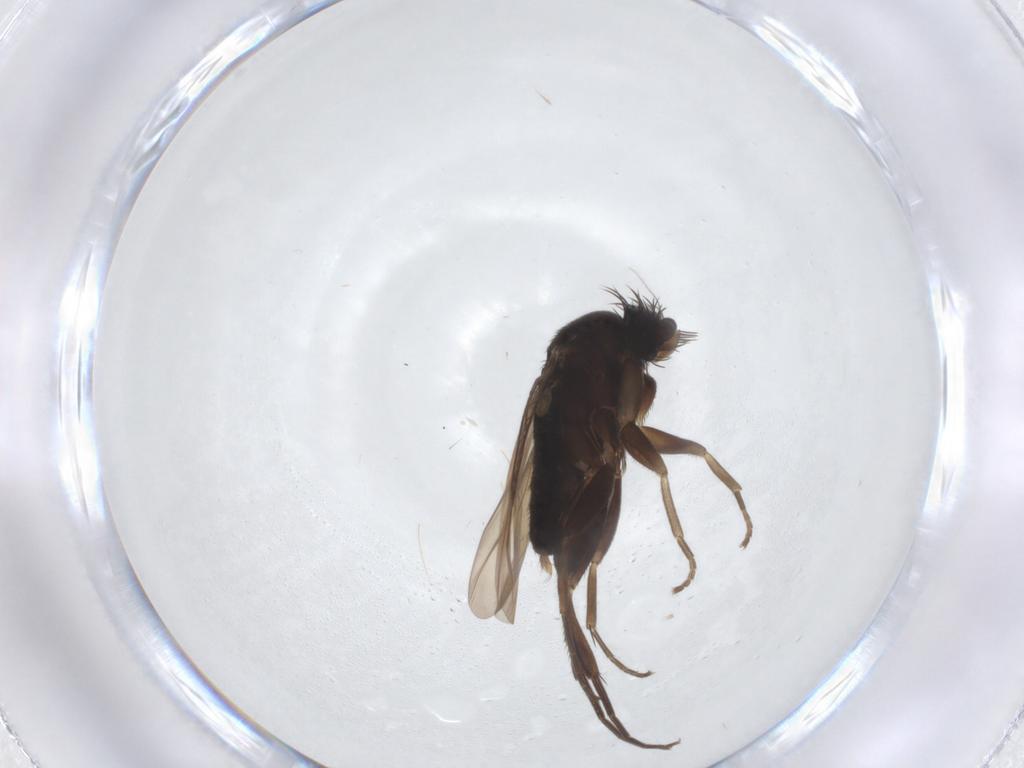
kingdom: Animalia
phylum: Arthropoda
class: Insecta
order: Diptera
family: Phoridae
